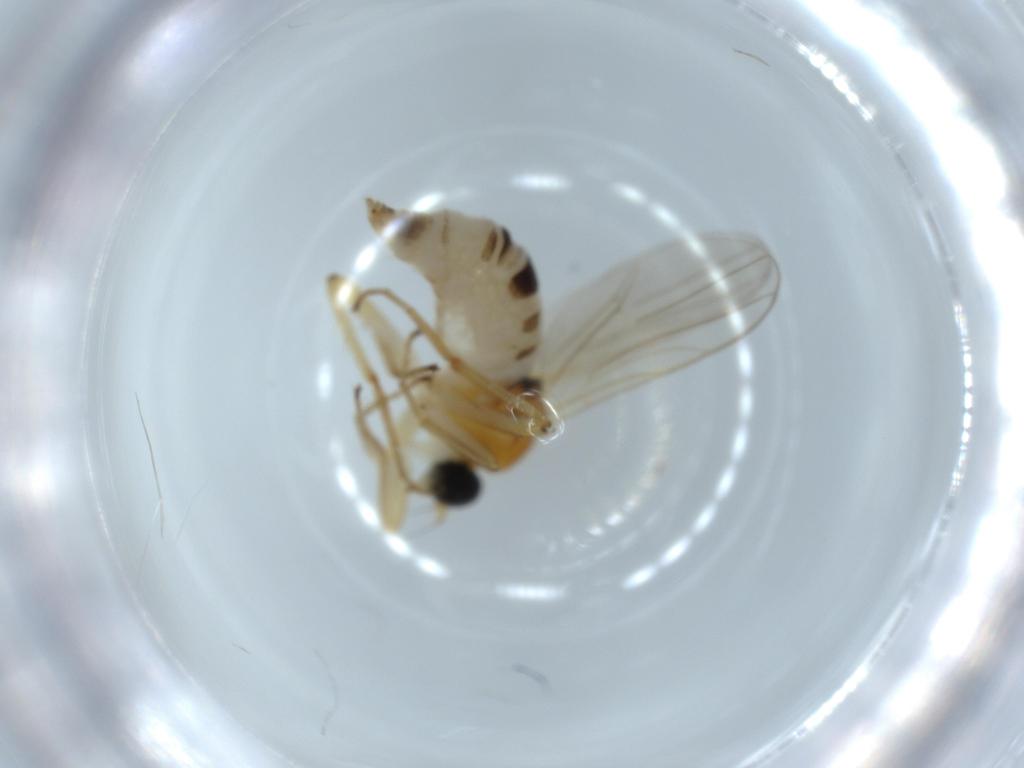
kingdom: Animalia
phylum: Arthropoda
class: Insecta
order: Diptera
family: Hybotidae
